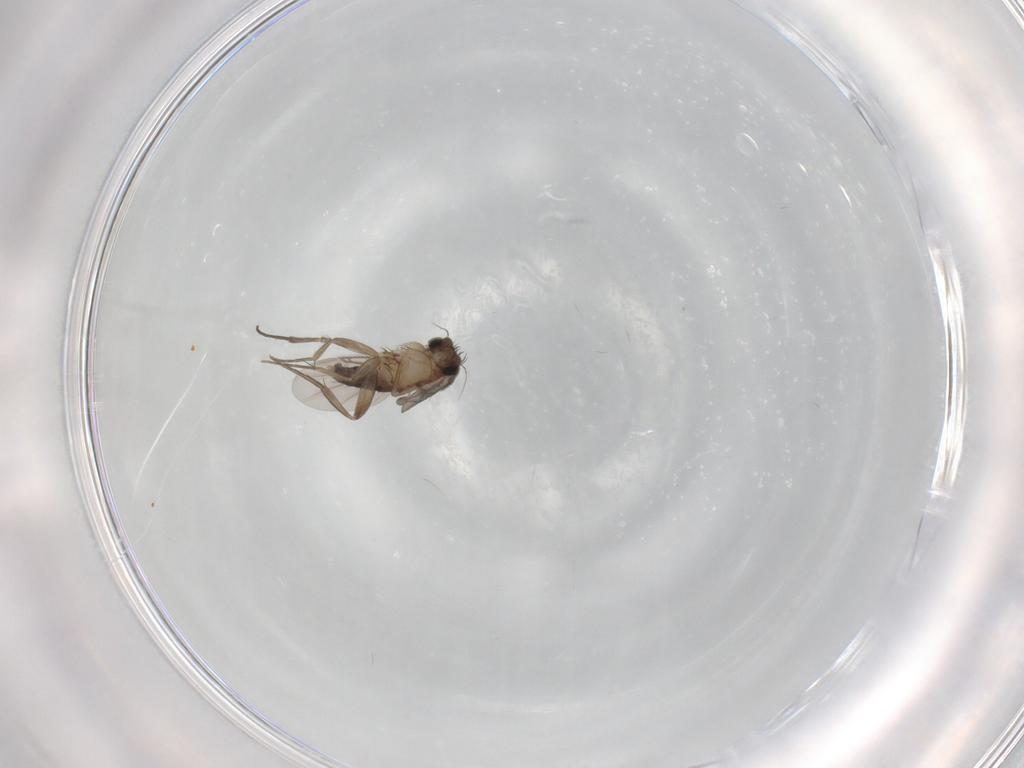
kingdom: Animalia
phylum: Arthropoda
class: Insecta
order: Diptera
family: Phoridae
